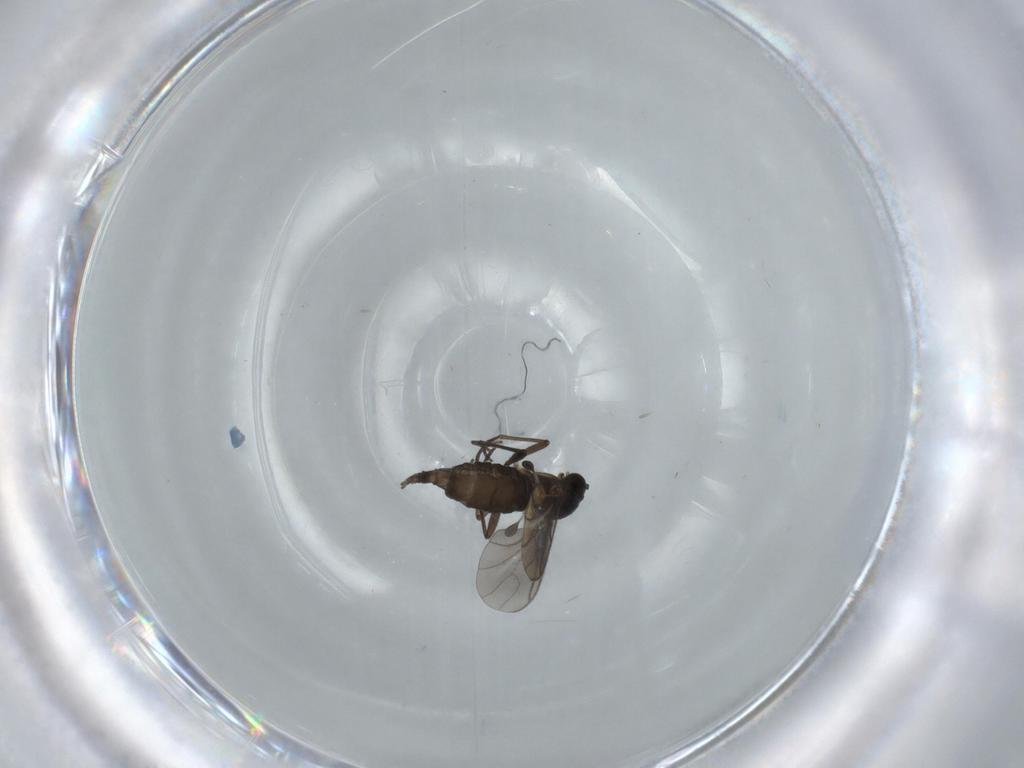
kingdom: Animalia
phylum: Arthropoda
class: Insecta
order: Diptera
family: Sciaridae
